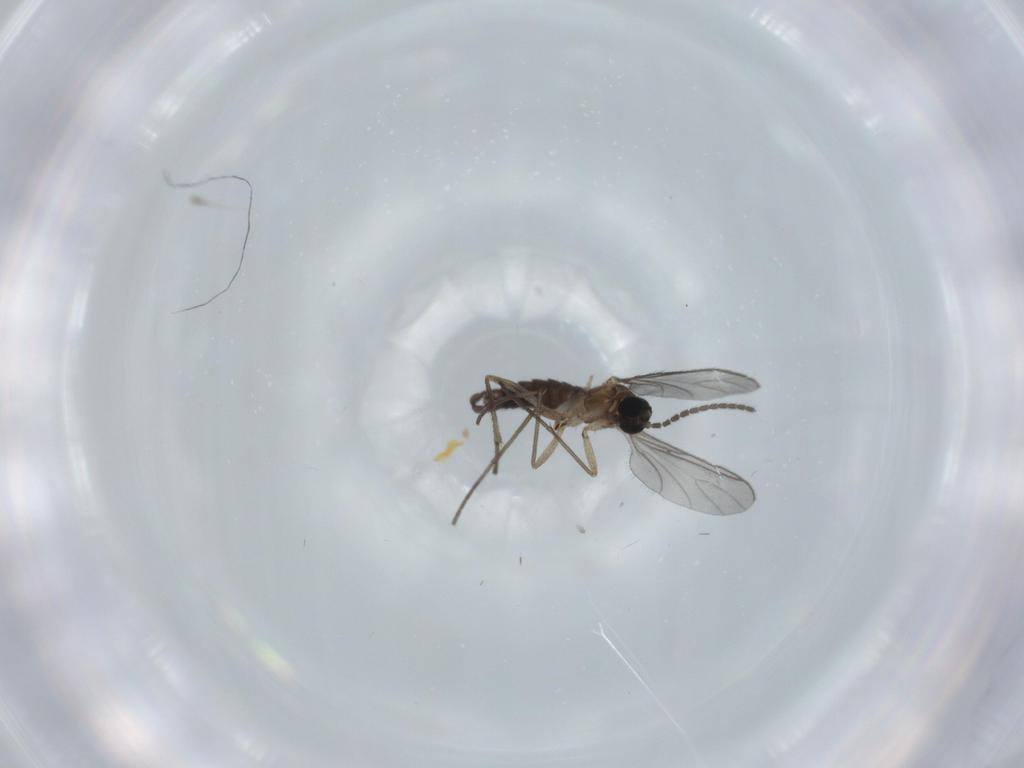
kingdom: Animalia
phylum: Arthropoda
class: Insecta
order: Diptera
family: Sciaridae
